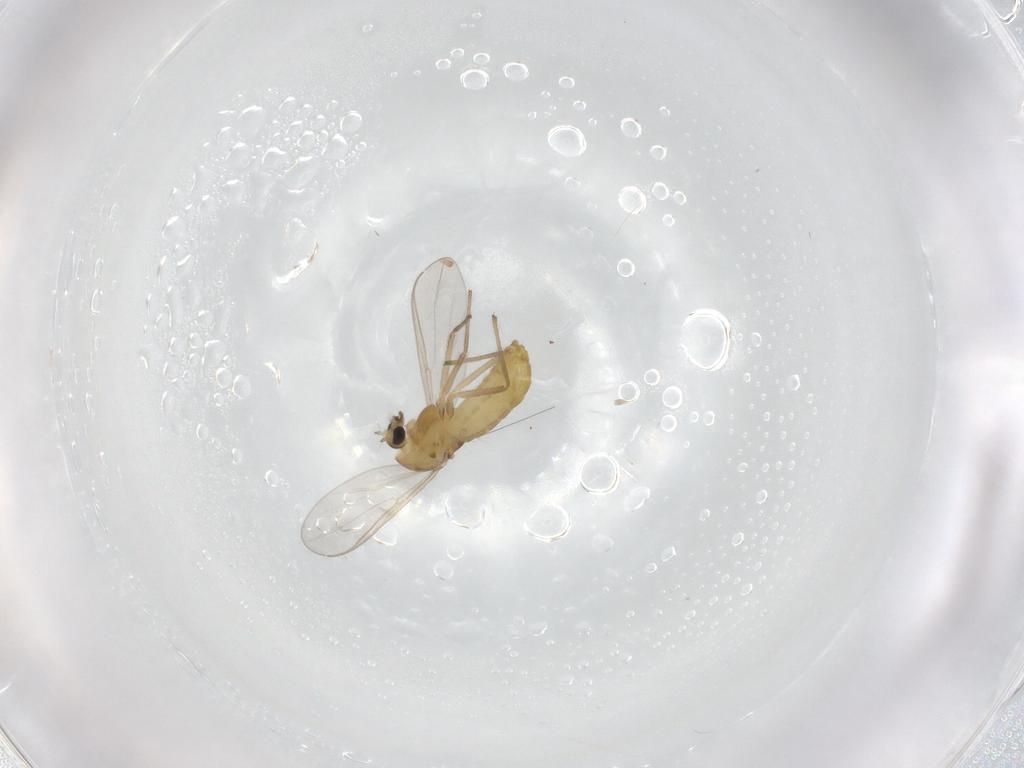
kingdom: Animalia
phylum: Arthropoda
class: Insecta
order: Diptera
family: Chironomidae
